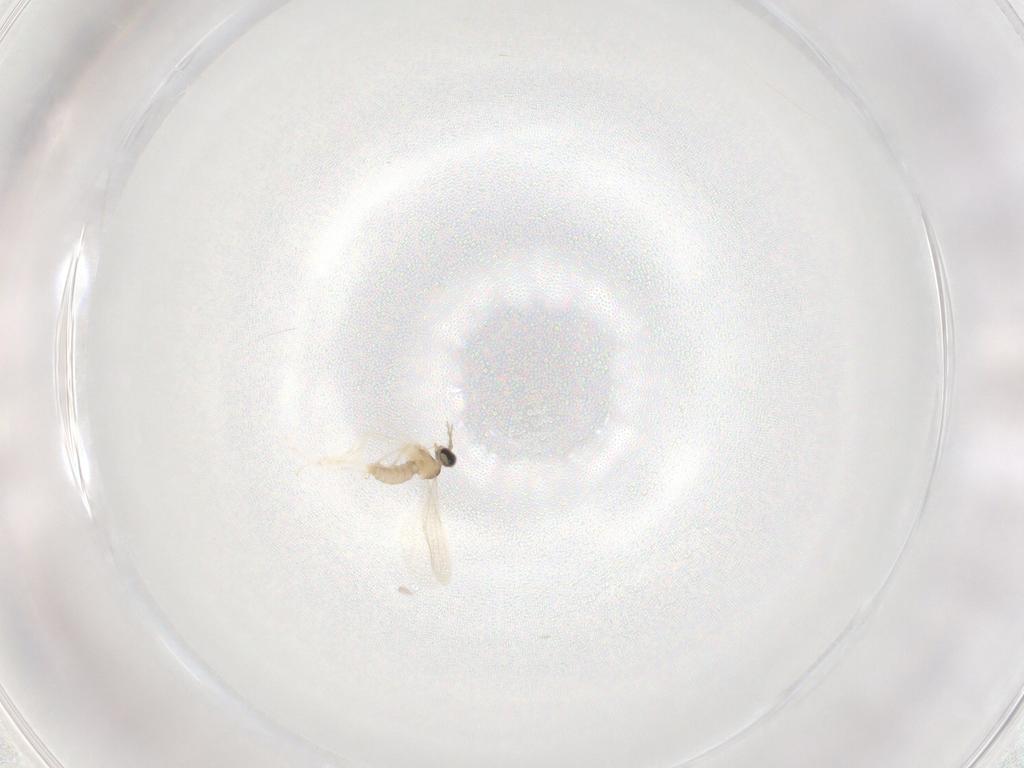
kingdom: Animalia
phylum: Arthropoda
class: Insecta
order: Diptera
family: Cecidomyiidae
